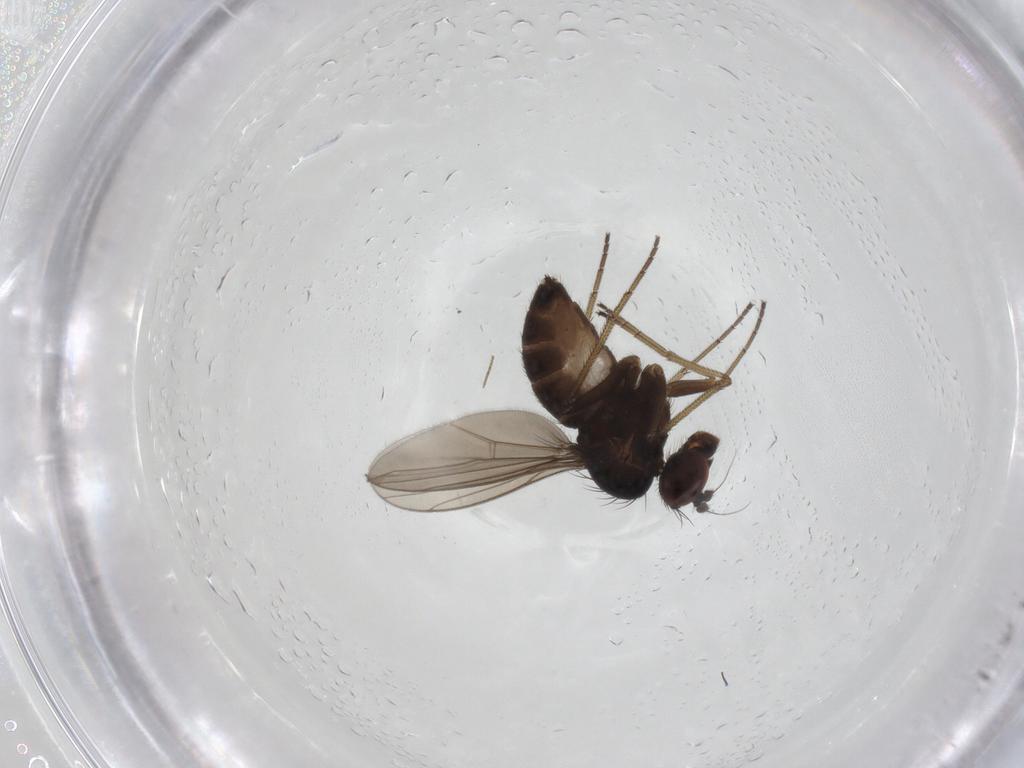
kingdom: Animalia
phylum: Arthropoda
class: Insecta
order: Diptera
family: Dolichopodidae
